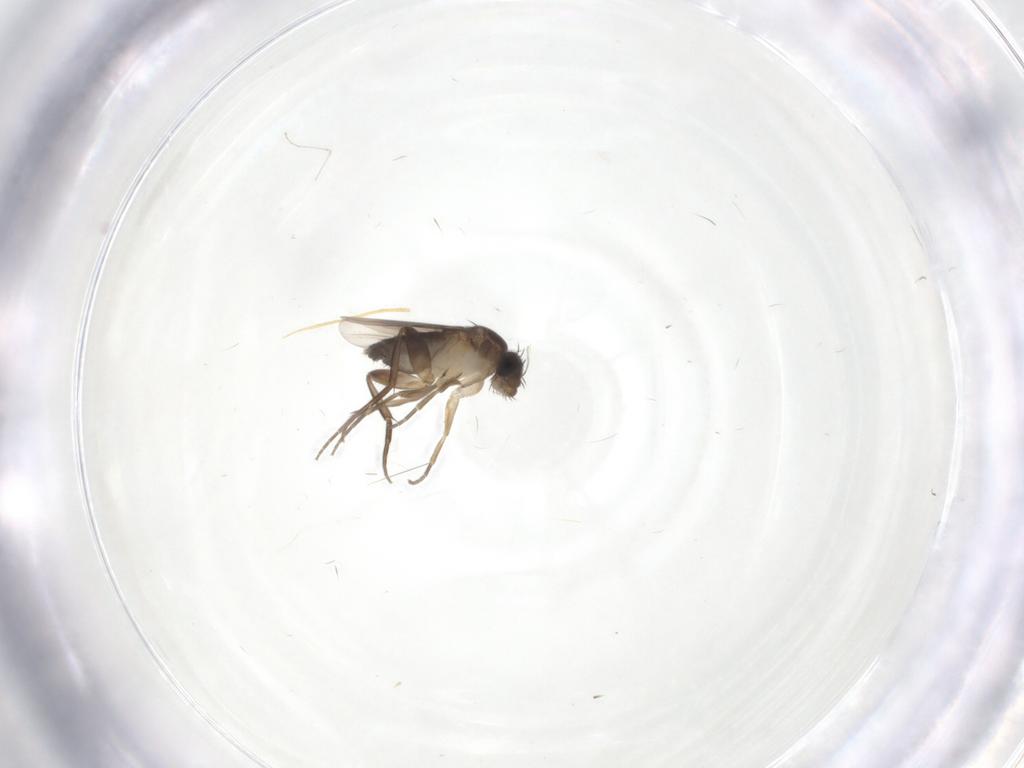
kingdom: Animalia
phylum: Arthropoda
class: Insecta
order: Diptera
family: Phoridae
